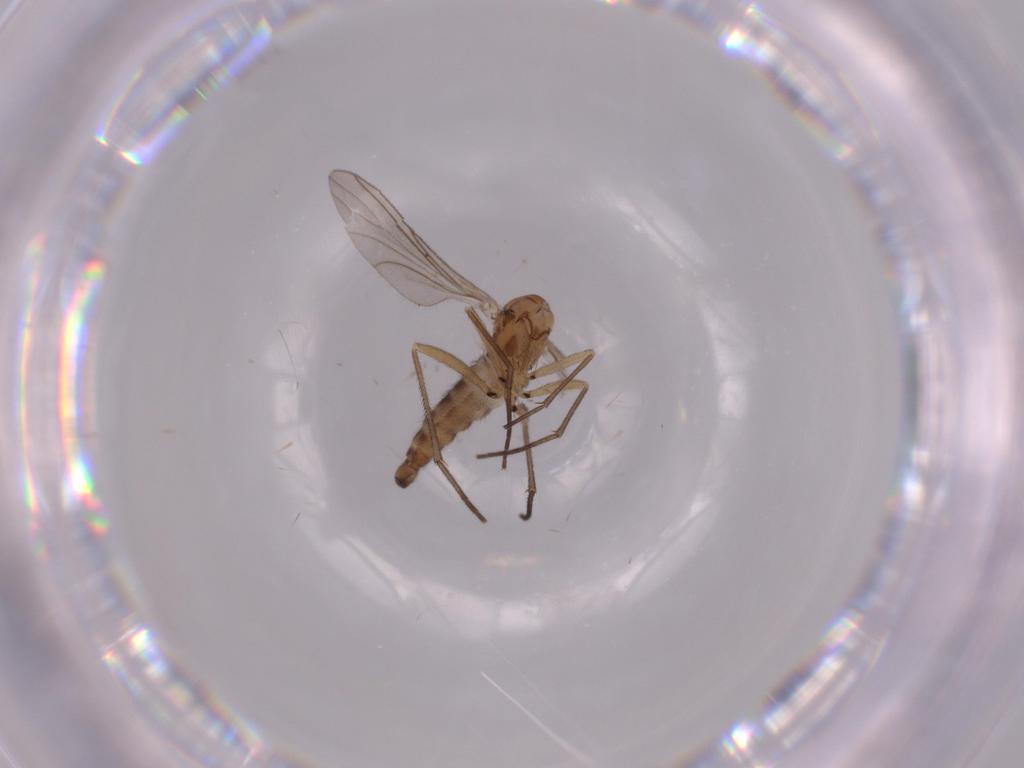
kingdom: Animalia
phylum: Arthropoda
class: Insecta
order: Diptera
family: Sciaridae
